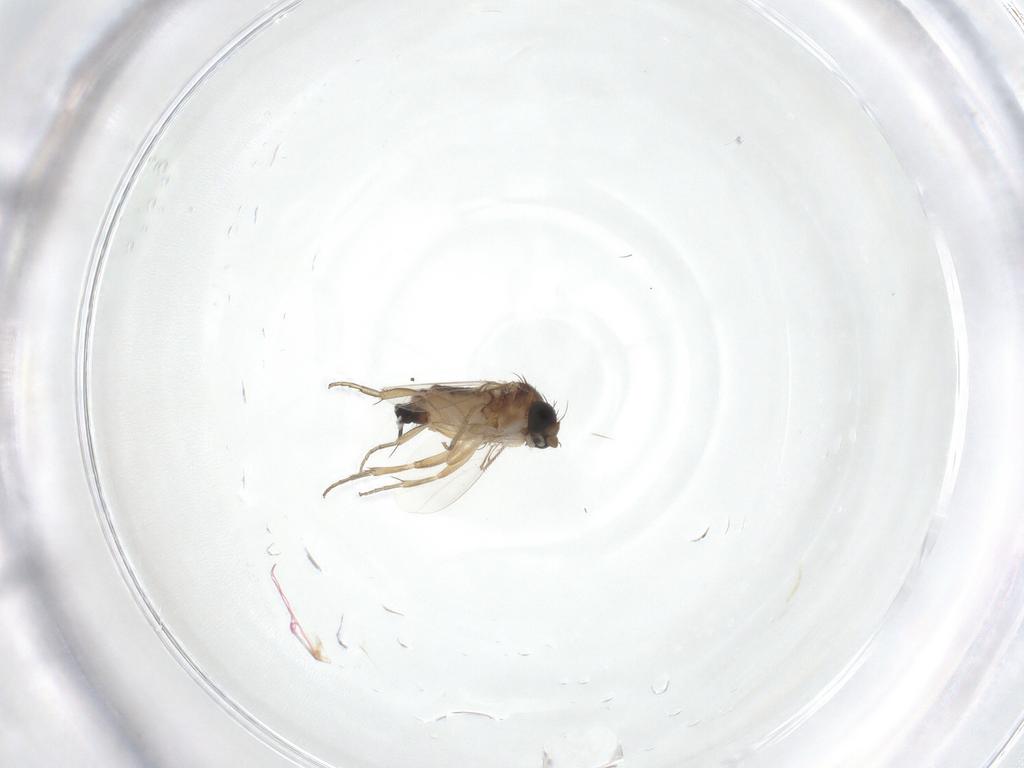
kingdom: Animalia
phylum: Arthropoda
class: Insecta
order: Diptera
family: Phoridae
